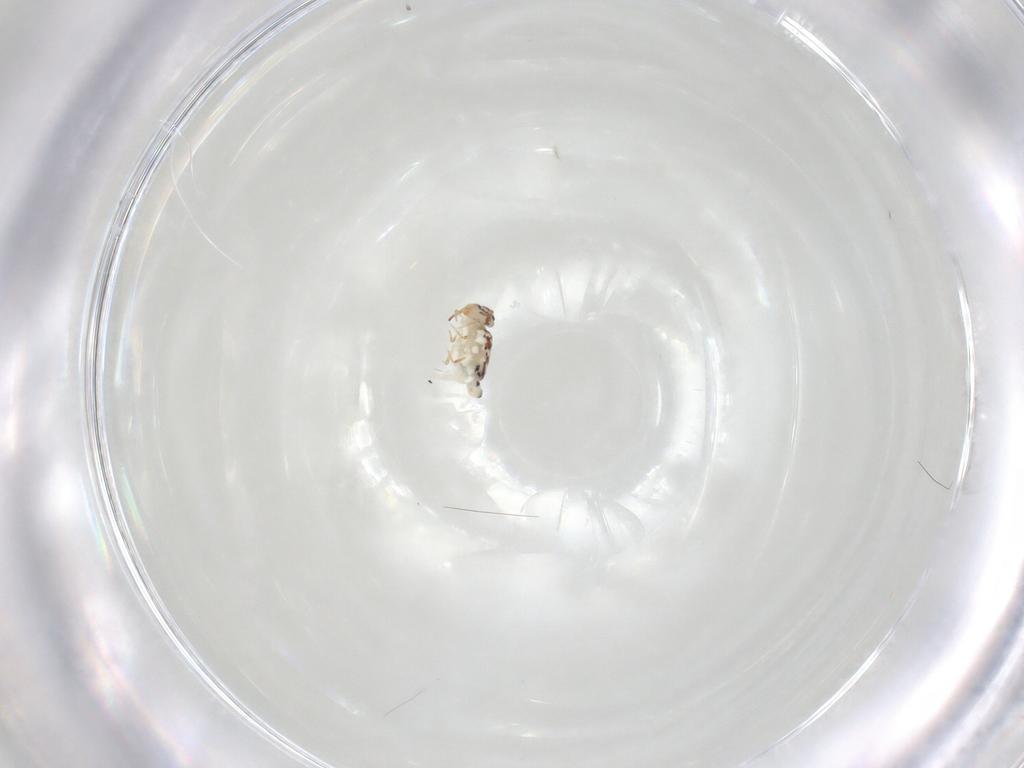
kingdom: Animalia
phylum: Arthropoda
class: Collembola
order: Symphypleona
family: Bourletiellidae
